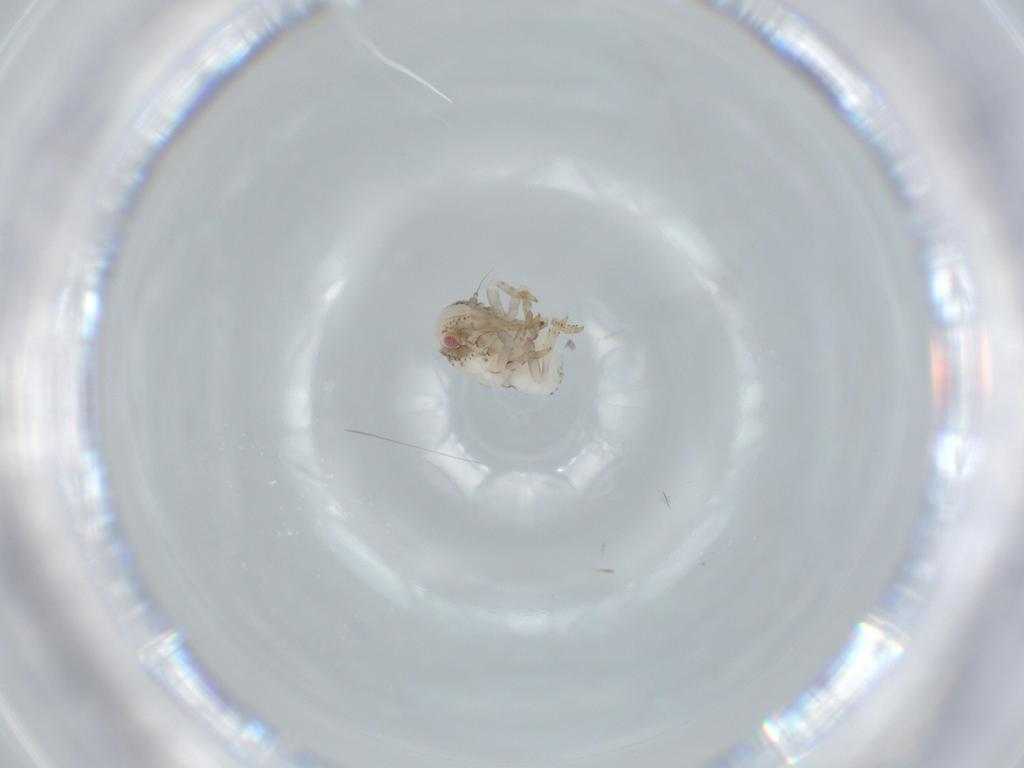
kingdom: Animalia
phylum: Arthropoda
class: Insecta
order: Hemiptera
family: Acanaloniidae
